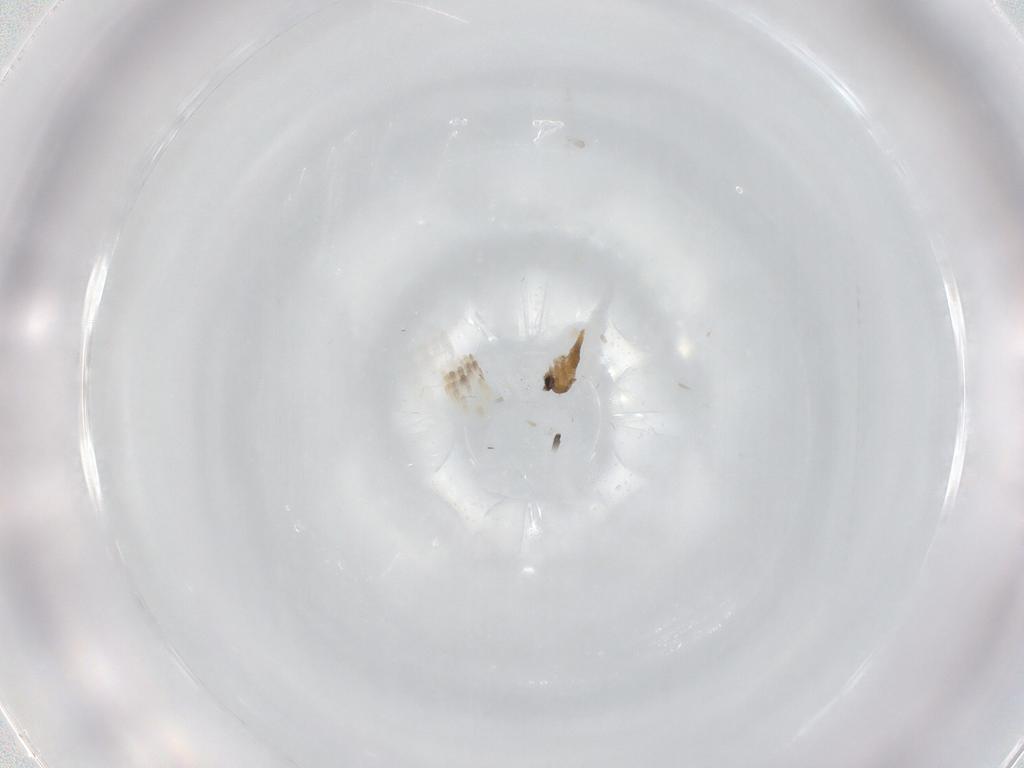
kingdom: Animalia
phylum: Arthropoda
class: Insecta
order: Diptera
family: Cecidomyiidae
